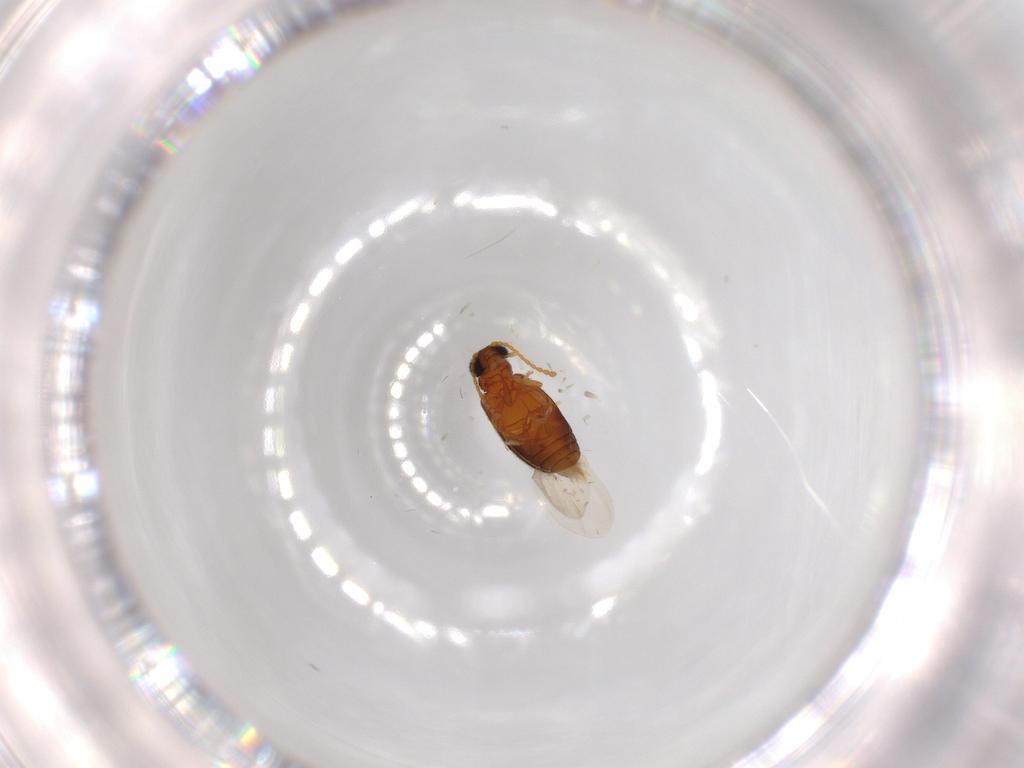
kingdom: Animalia
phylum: Arthropoda
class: Insecta
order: Coleoptera
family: Aderidae
